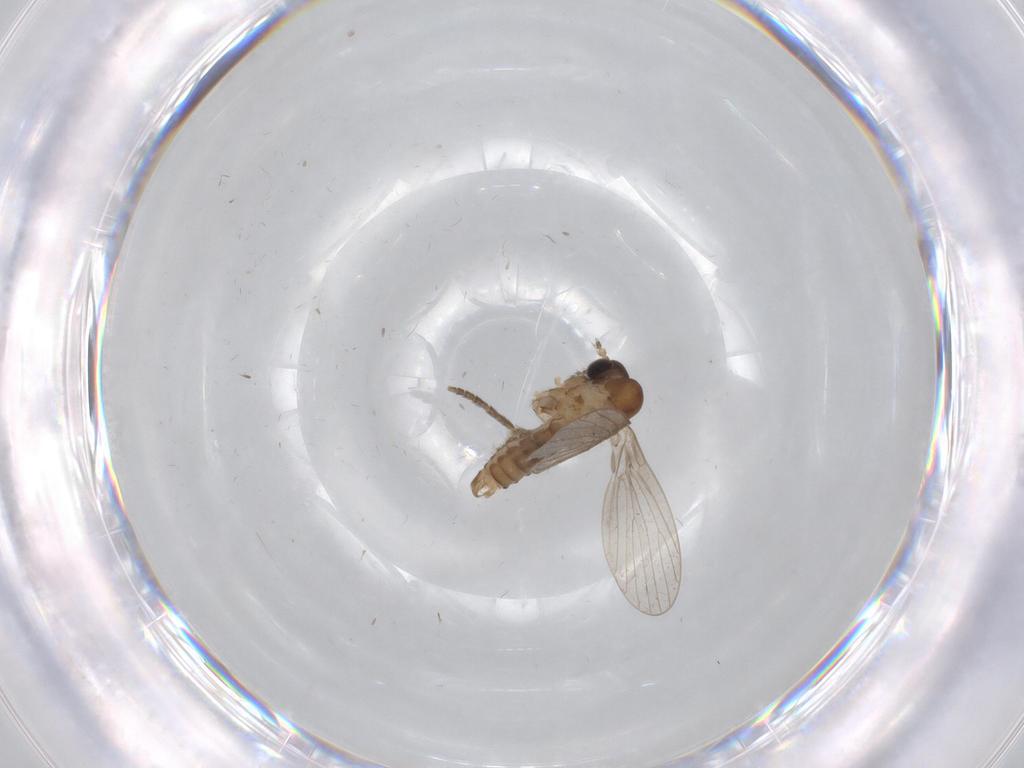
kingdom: Animalia
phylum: Arthropoda
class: Insecta
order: Diptera
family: Sciaridae
